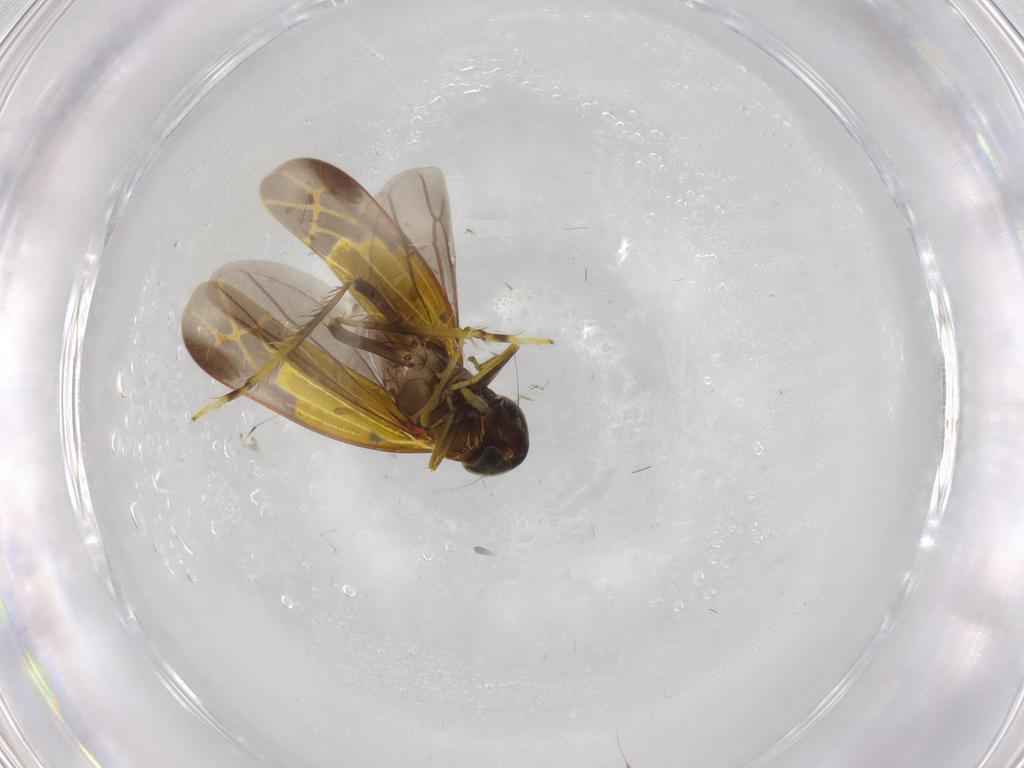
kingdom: Animalia
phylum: Arthropoda
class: Insecta
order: Hemiptera
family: Cicadellidae
